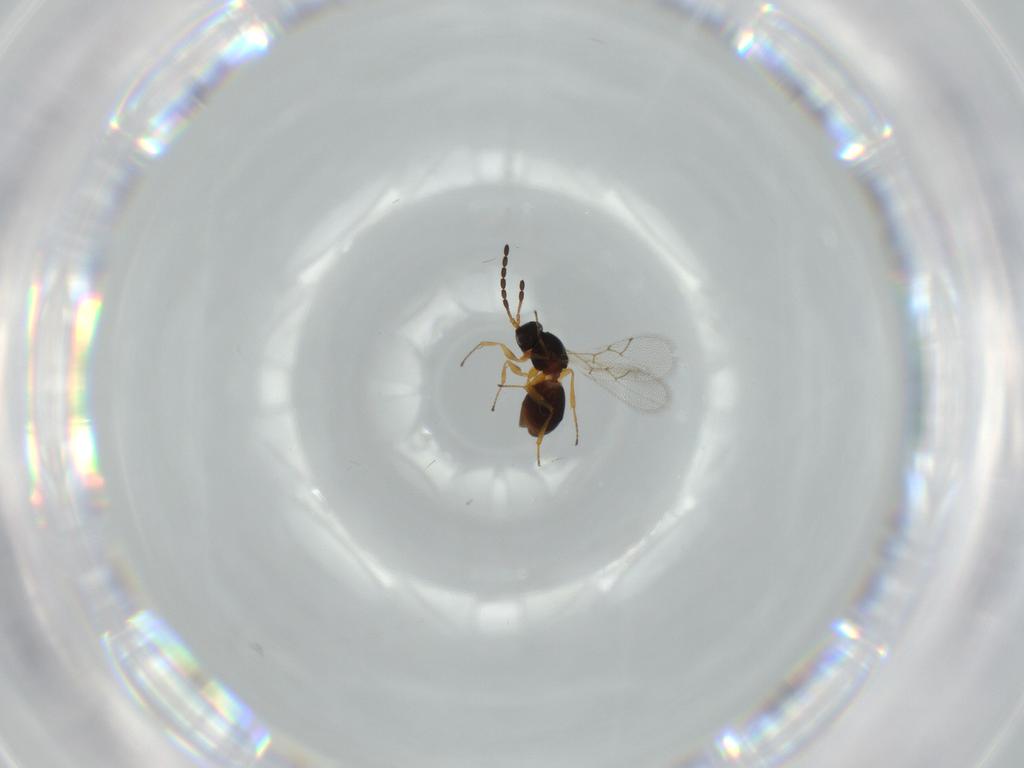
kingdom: Animalia
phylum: Arthropoda
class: Insecta
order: Hymenoptera
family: Figitidae
